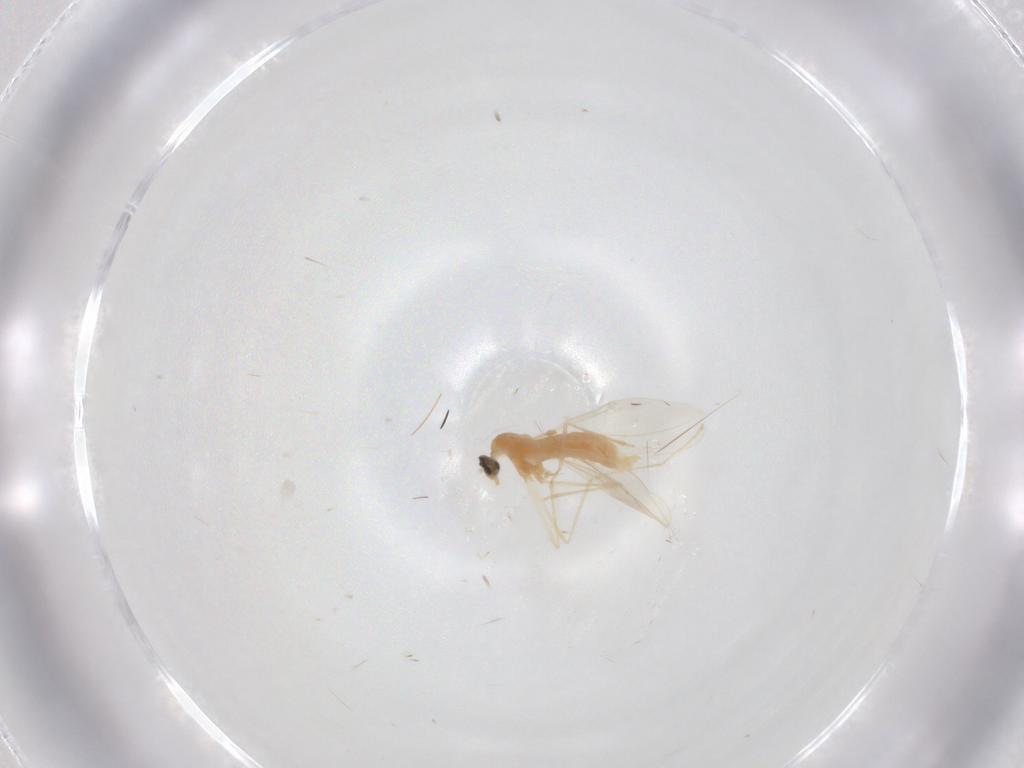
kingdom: Animalia
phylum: Arthropoda
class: Insecta
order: Diptera
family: Cecidomyiidae
